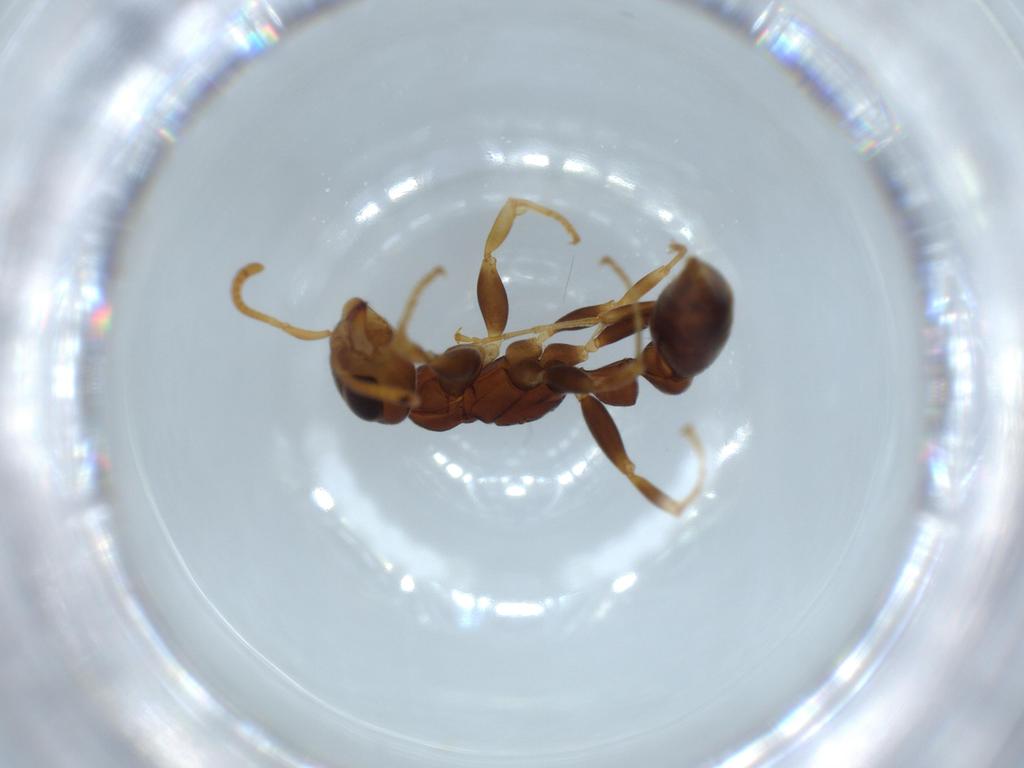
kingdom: Animalia
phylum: Arthropoda
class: Insecta
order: Hymenoptera
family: Formicidae
